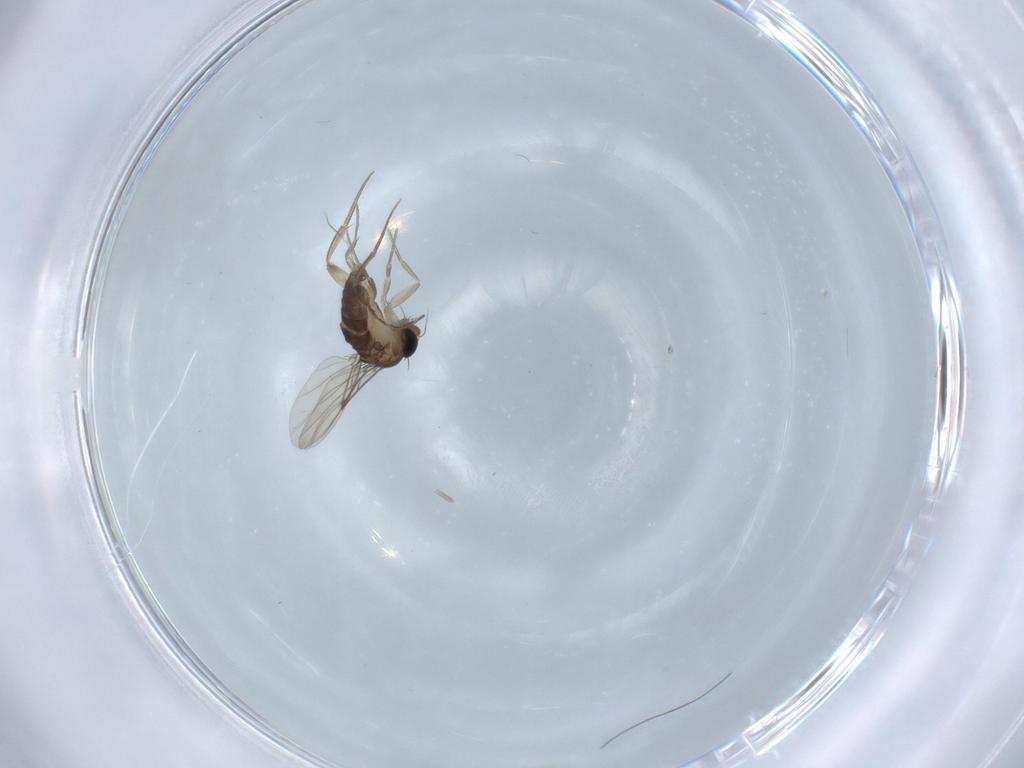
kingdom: Animalia
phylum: Arthropoda
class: Insecta
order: Diptera
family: Phoridae
